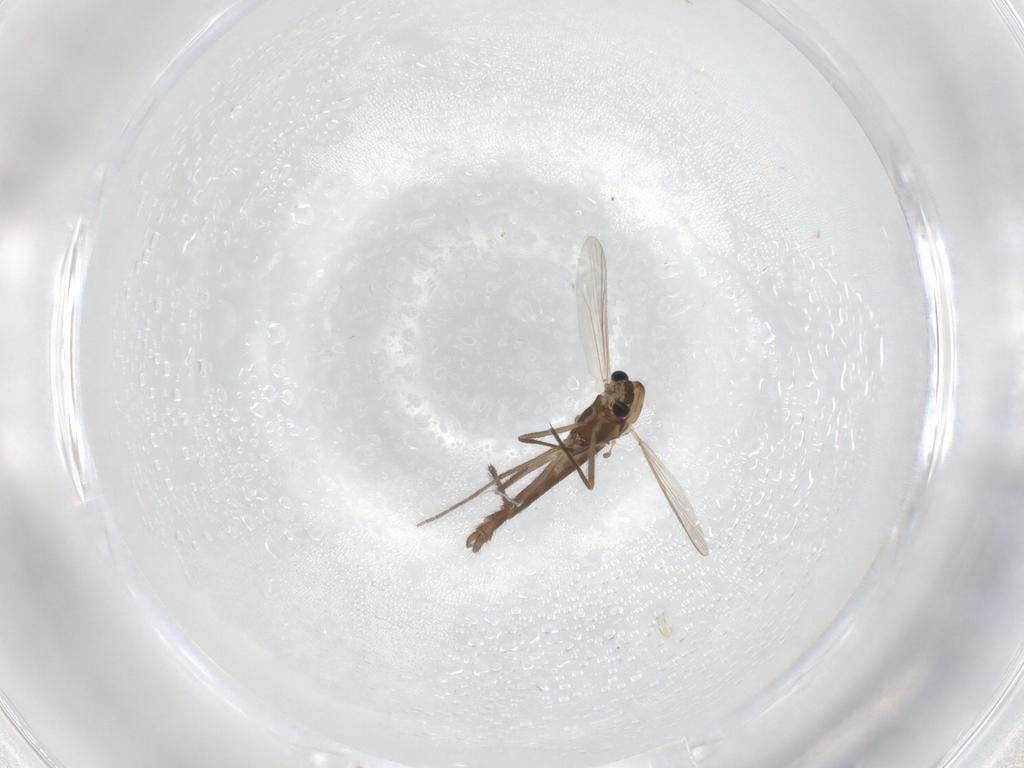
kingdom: Animalia
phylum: Arthropoda
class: Insecta
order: Diptera
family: Chironomidae
